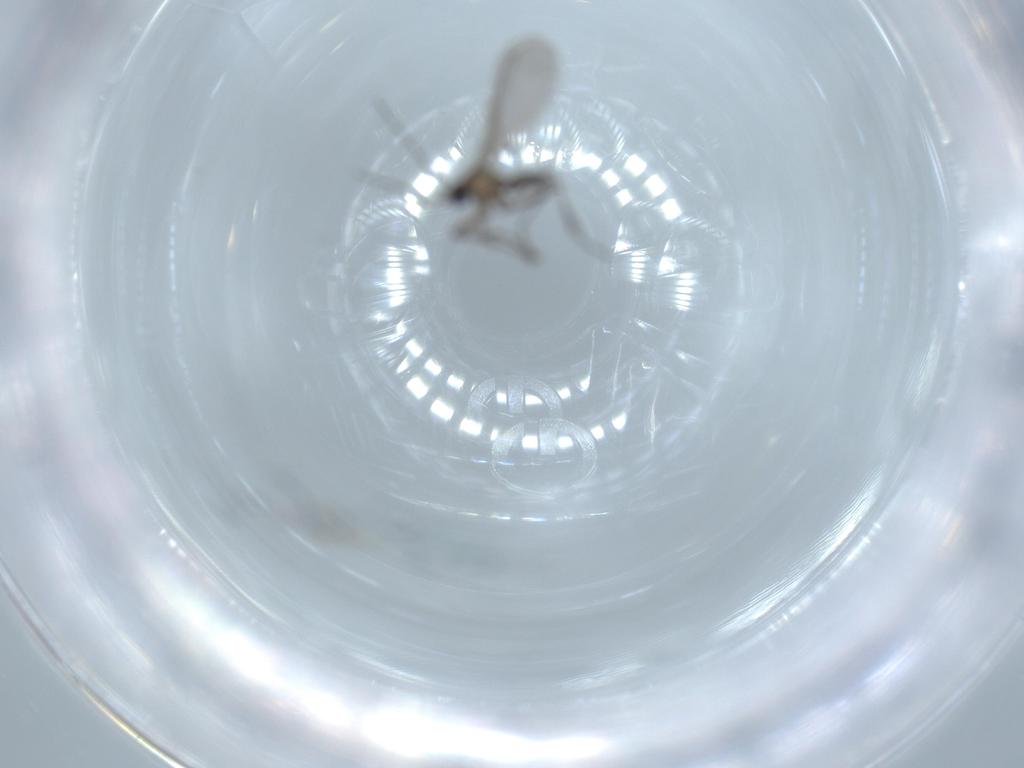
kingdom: Animalia
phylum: Arthropoda
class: Insecta
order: Diptera
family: Sciaridae
